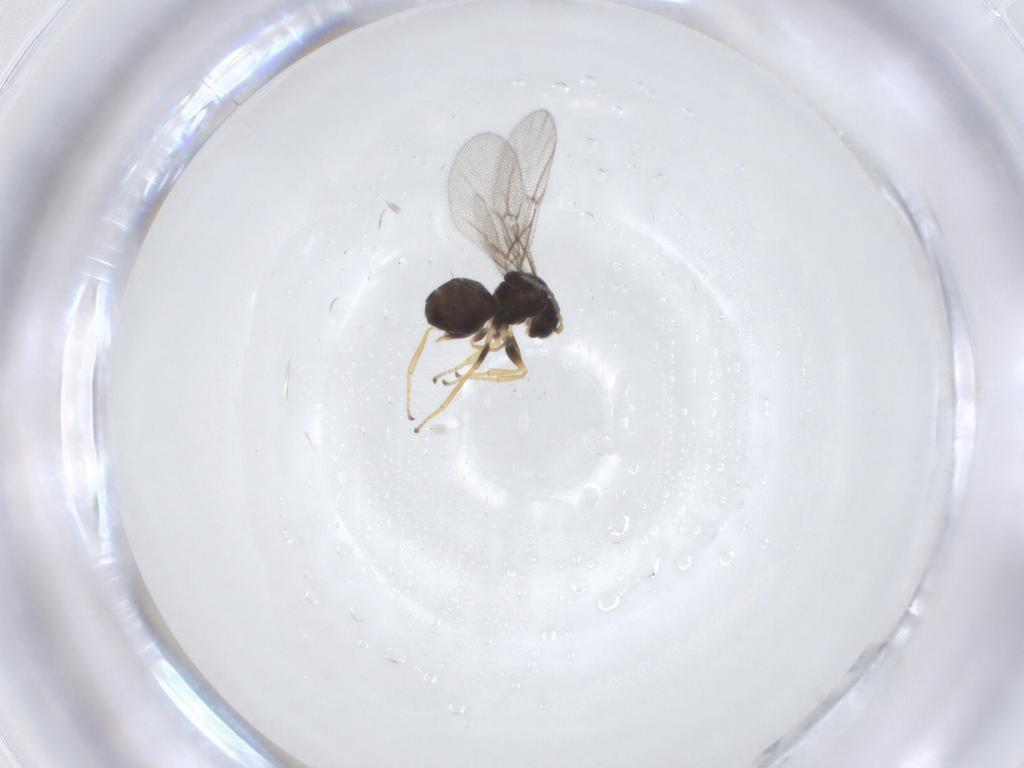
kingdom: Animalia
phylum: Arthropoda
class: Insecta
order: Hymenoptera
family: Cynipidae
